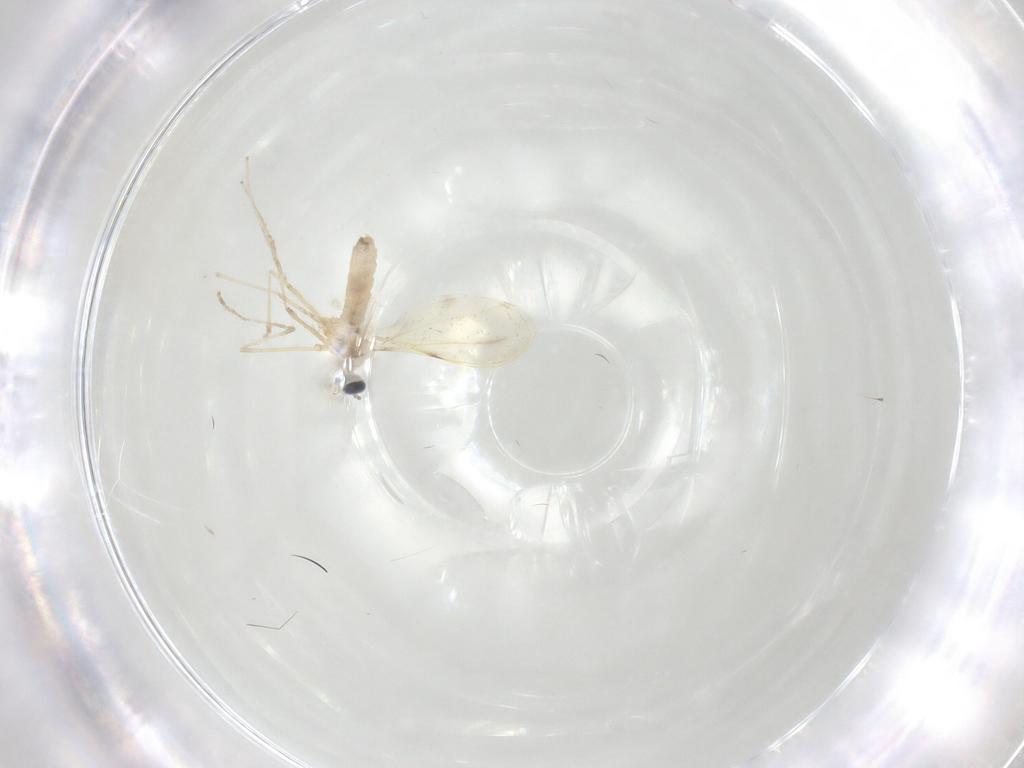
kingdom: Animalia
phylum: Arthropoda
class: Insecta
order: Diptera
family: Cecidomyiidae
